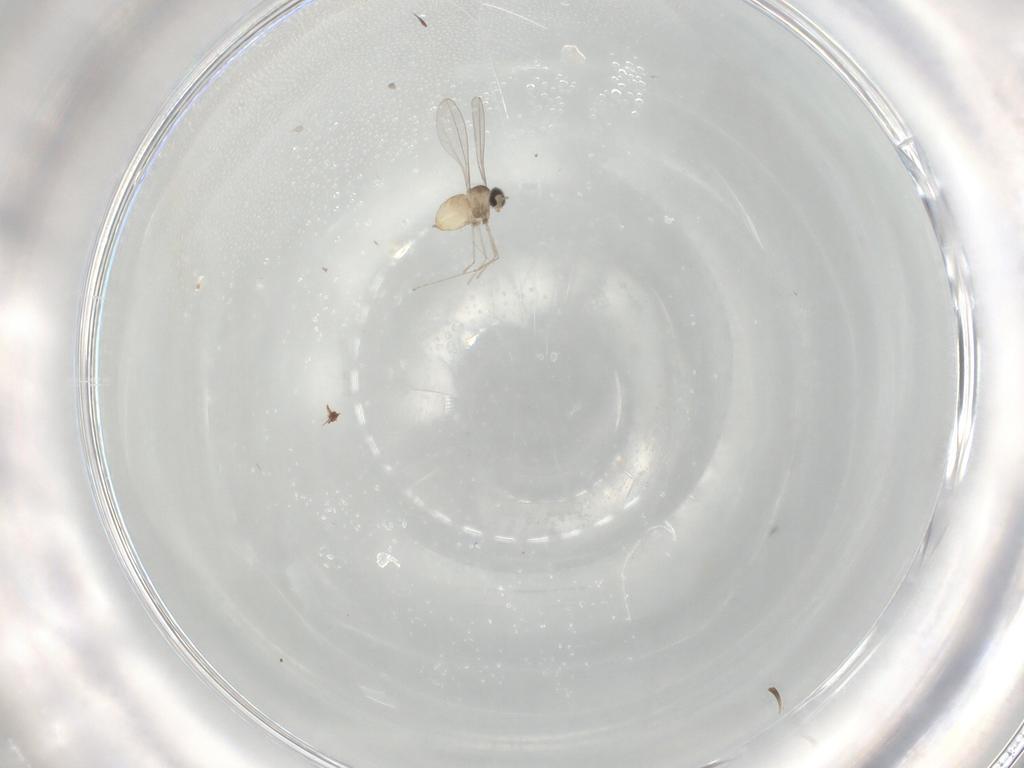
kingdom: Animalia
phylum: Arthropoda
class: Insecta
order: Diptera
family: Cecidomyiidae
